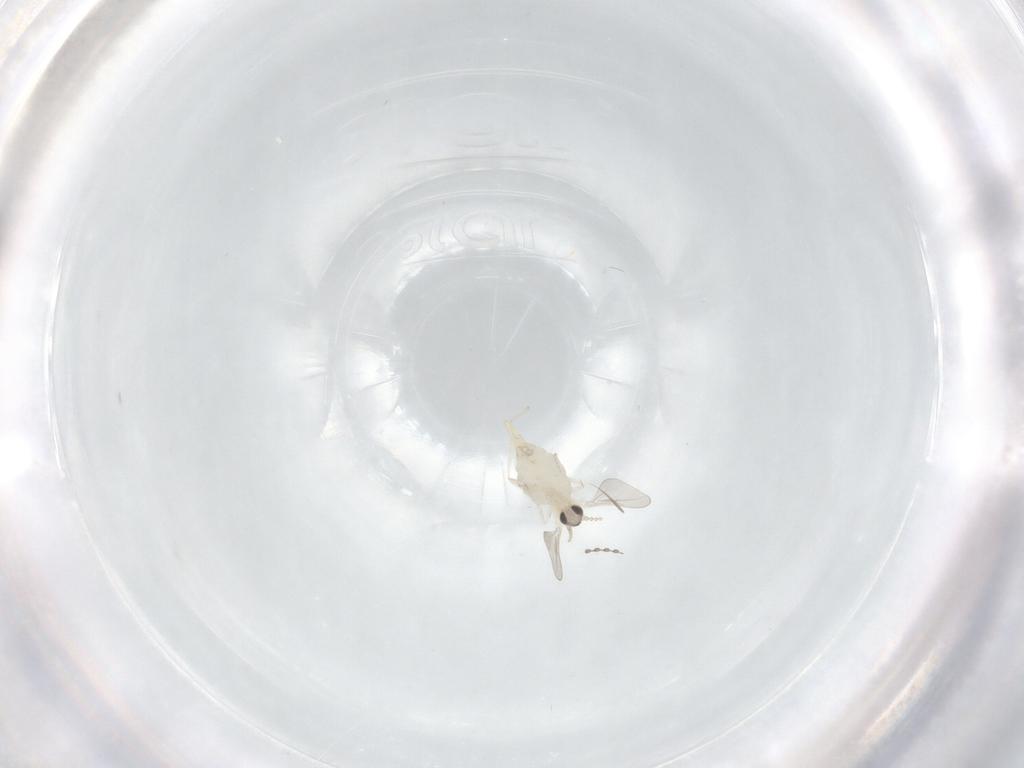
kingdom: Animalia
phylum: Arthropoda
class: Insecta
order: Diptera
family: Cecidomyiidae
